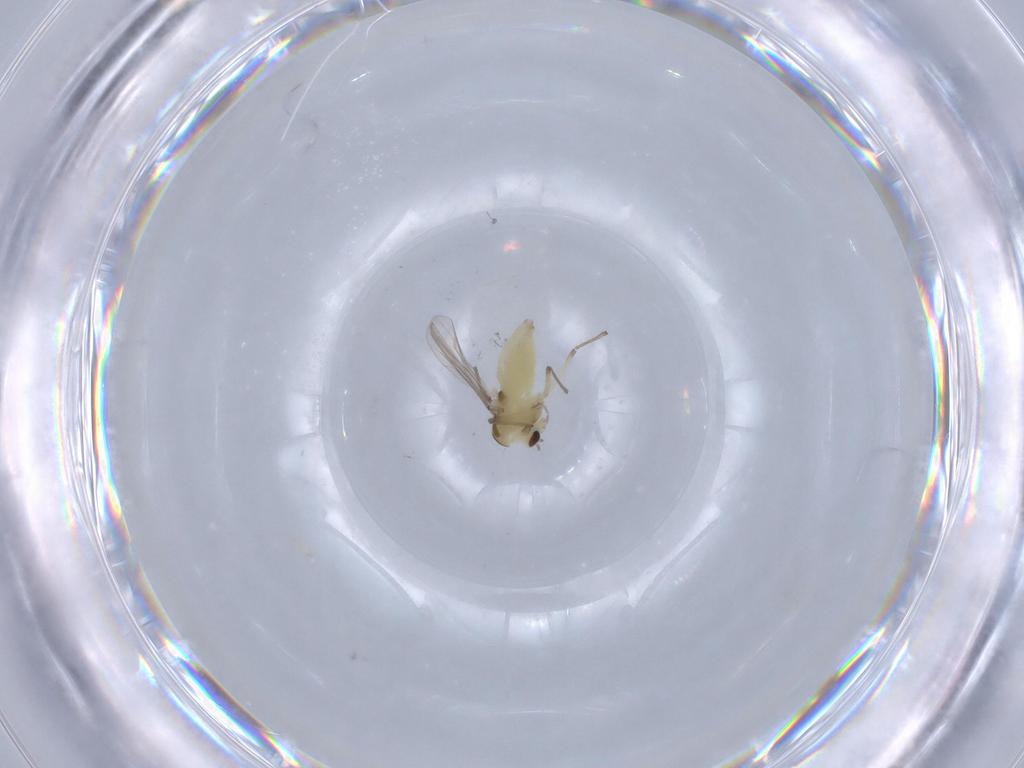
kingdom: Animalia
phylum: Arthropoda
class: Insecta
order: Diptera
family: Chironomidae
